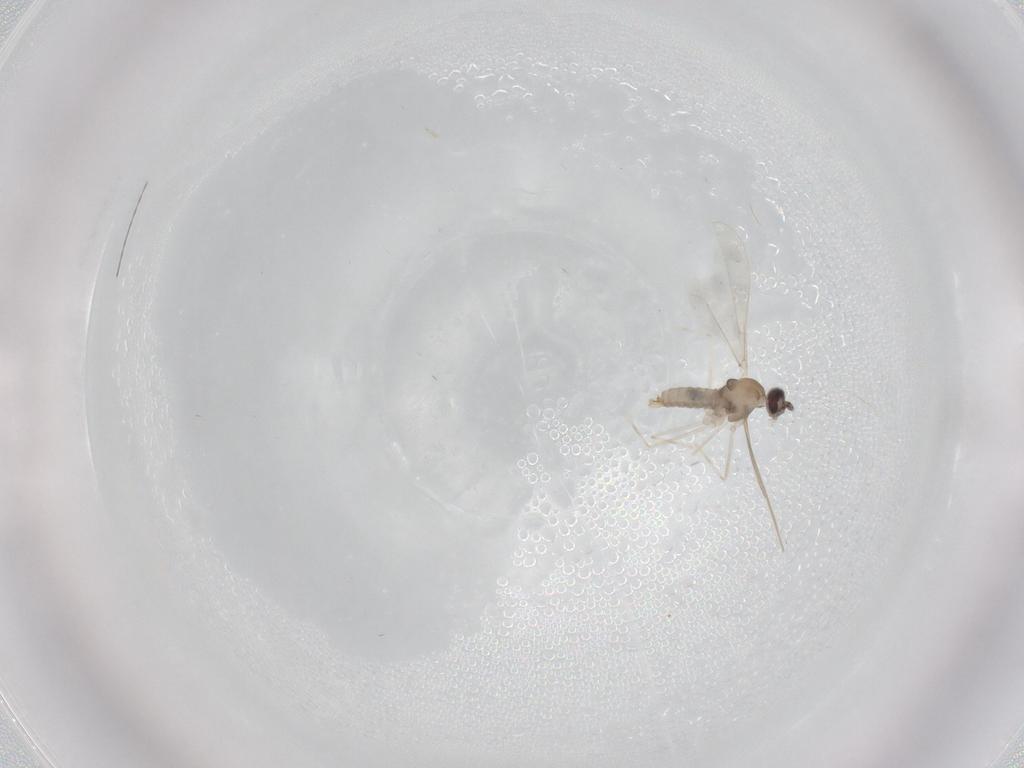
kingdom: Animalia
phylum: Arthropoda
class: Insecta
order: Diptera
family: Cecidomyiidae
